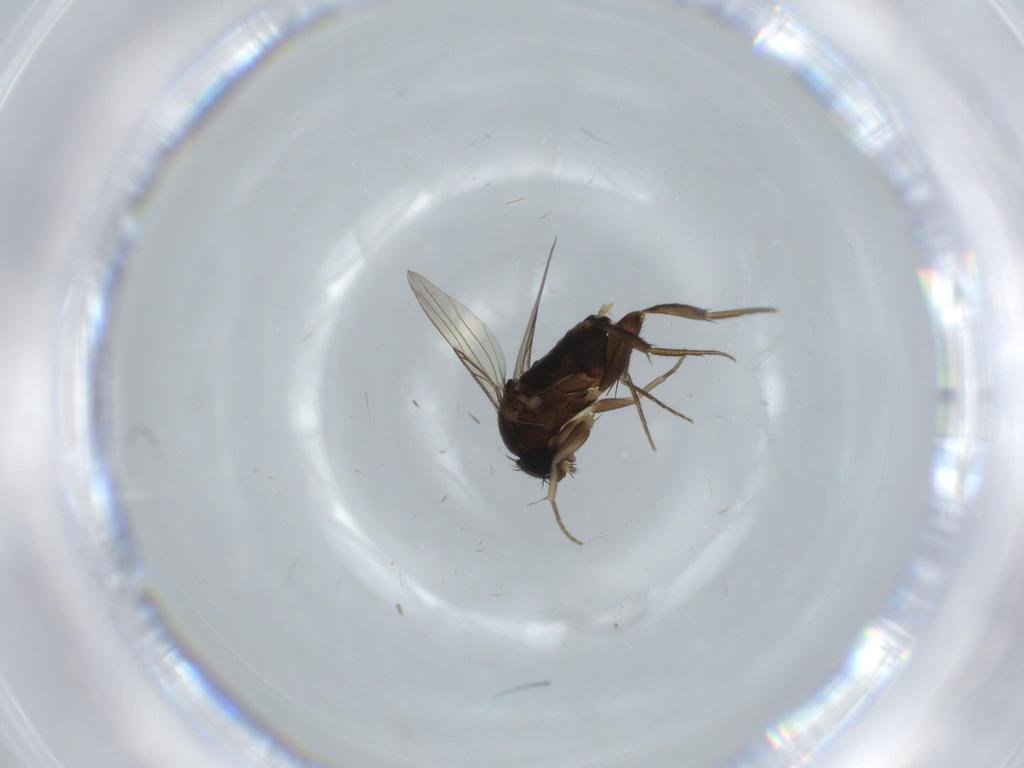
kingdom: Animalia
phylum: Arthropoda
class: Insecta
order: Diptera
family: Phoridae
